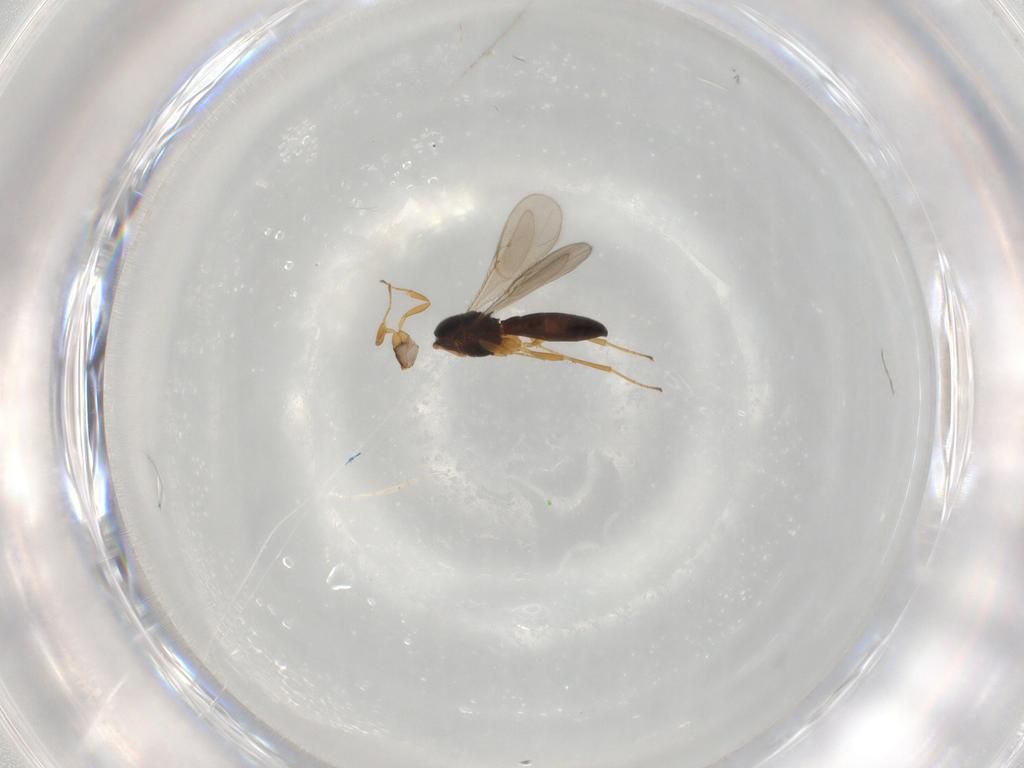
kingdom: Animalia
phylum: Arthropoda
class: Insecta
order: Hymenoptera
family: Scelionidae
